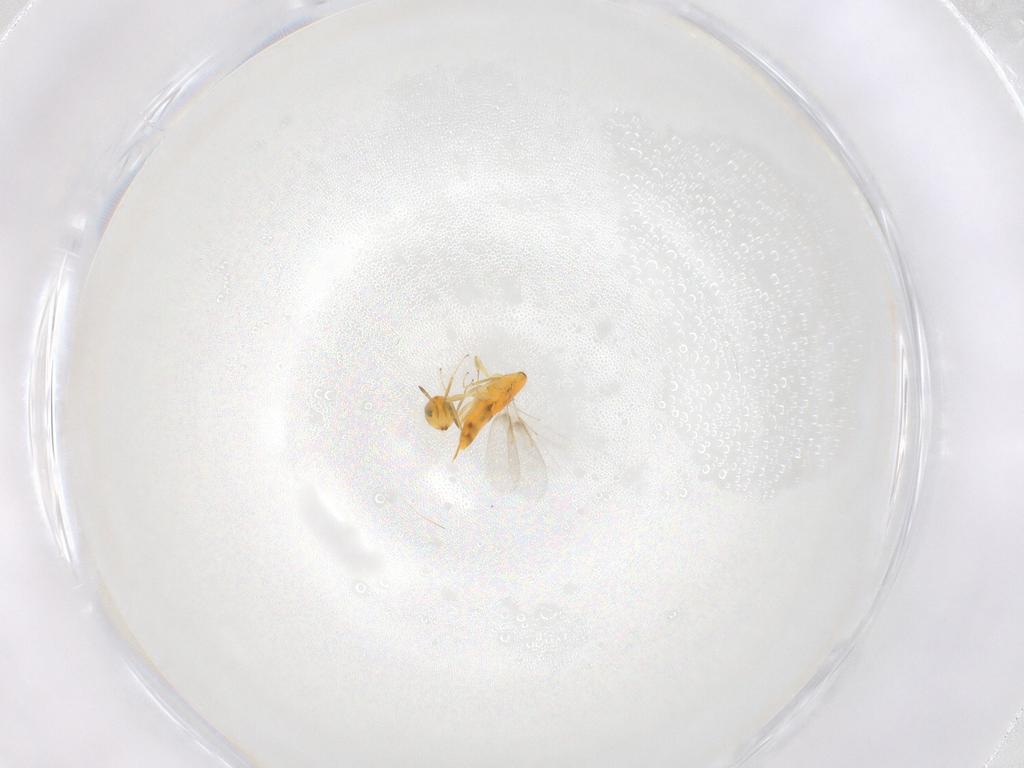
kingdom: Animalia
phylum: Arthropoda
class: Insecta
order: Hymenoptera
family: Aphelinidae
